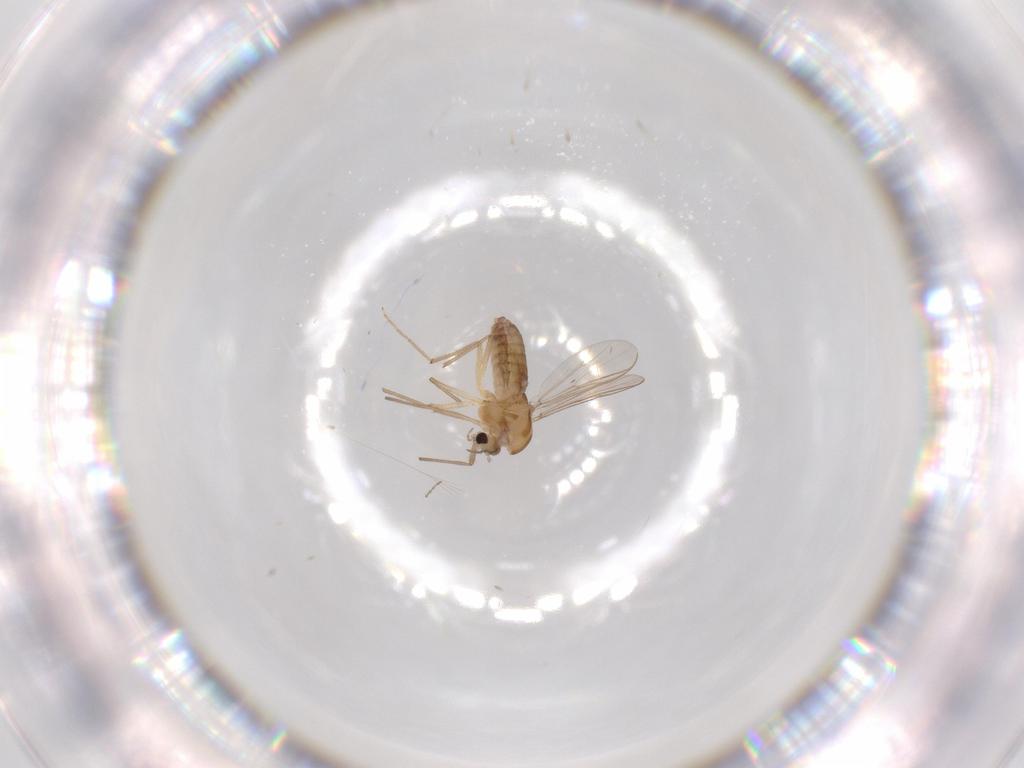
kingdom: Animalia
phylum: Arthropoda
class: Insecta
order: Diptera
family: Chironomidae
